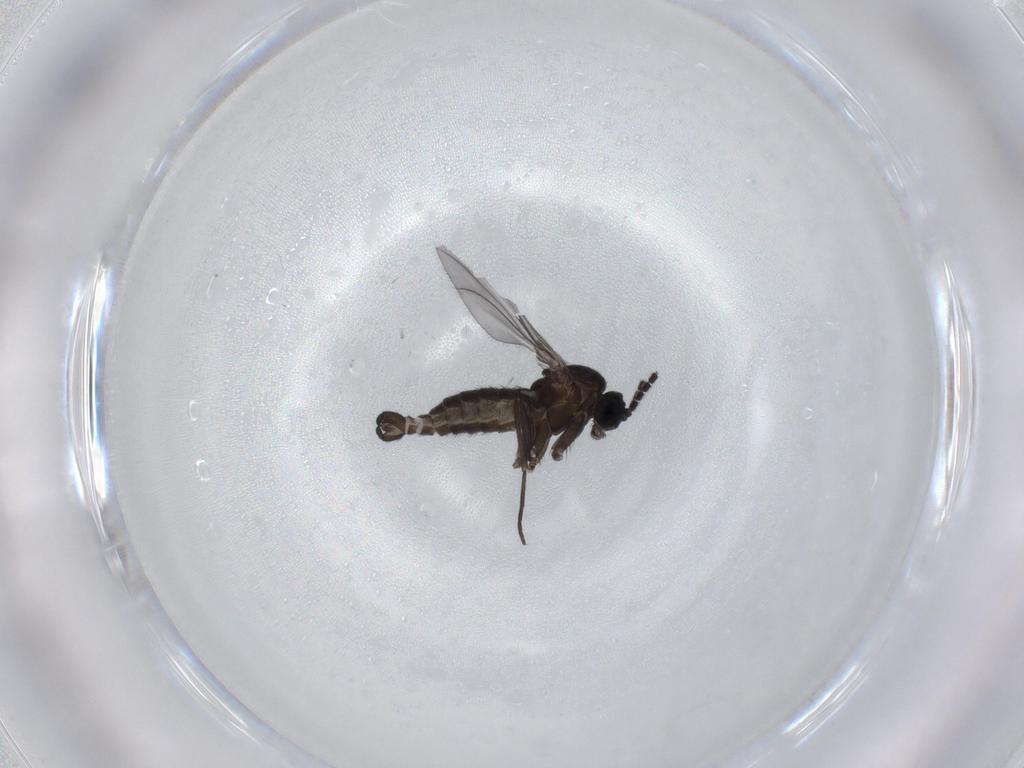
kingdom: Animalia
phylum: Arthropoda
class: Insecta
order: Diptera
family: Sciaridae
